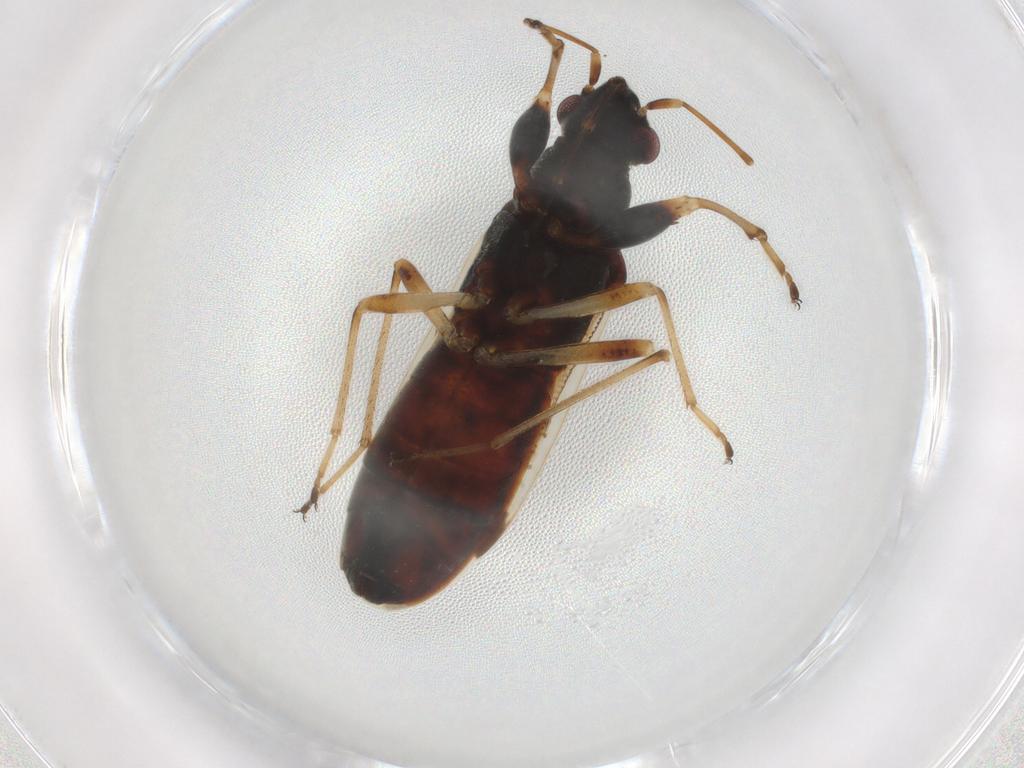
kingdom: Animalia
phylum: Arthropoda
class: Insecta
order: Hemiptera
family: Rhyparochromidae
